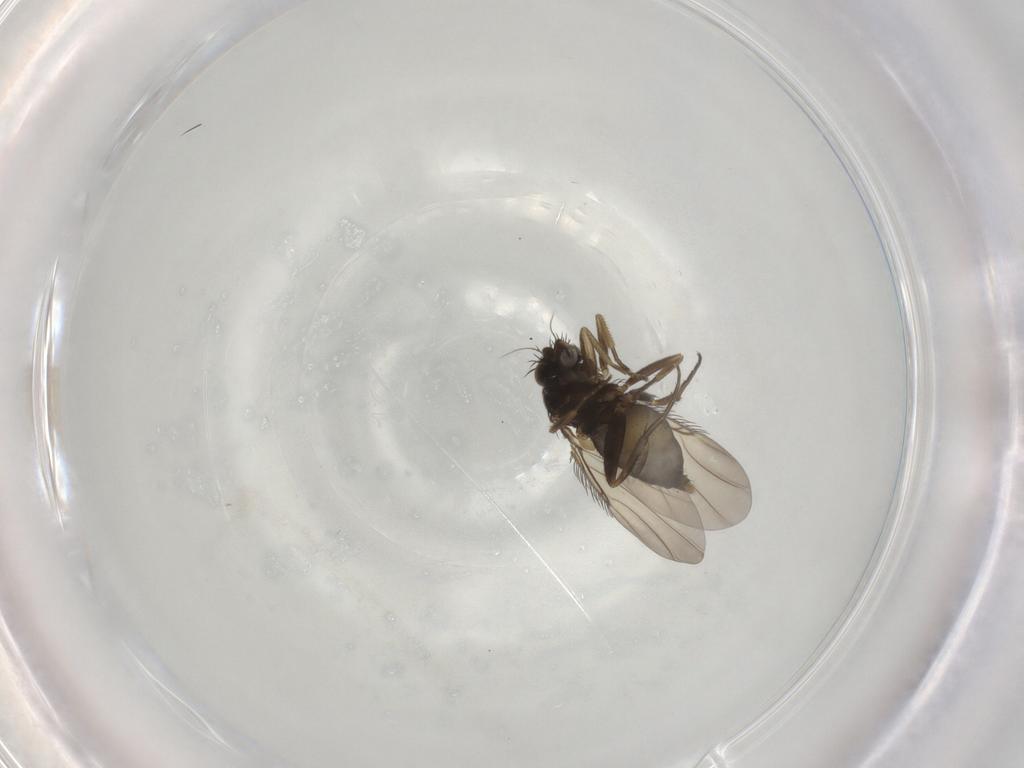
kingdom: Animalia
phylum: Arthropoda
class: Insecta
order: Diptera
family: Phoridae
